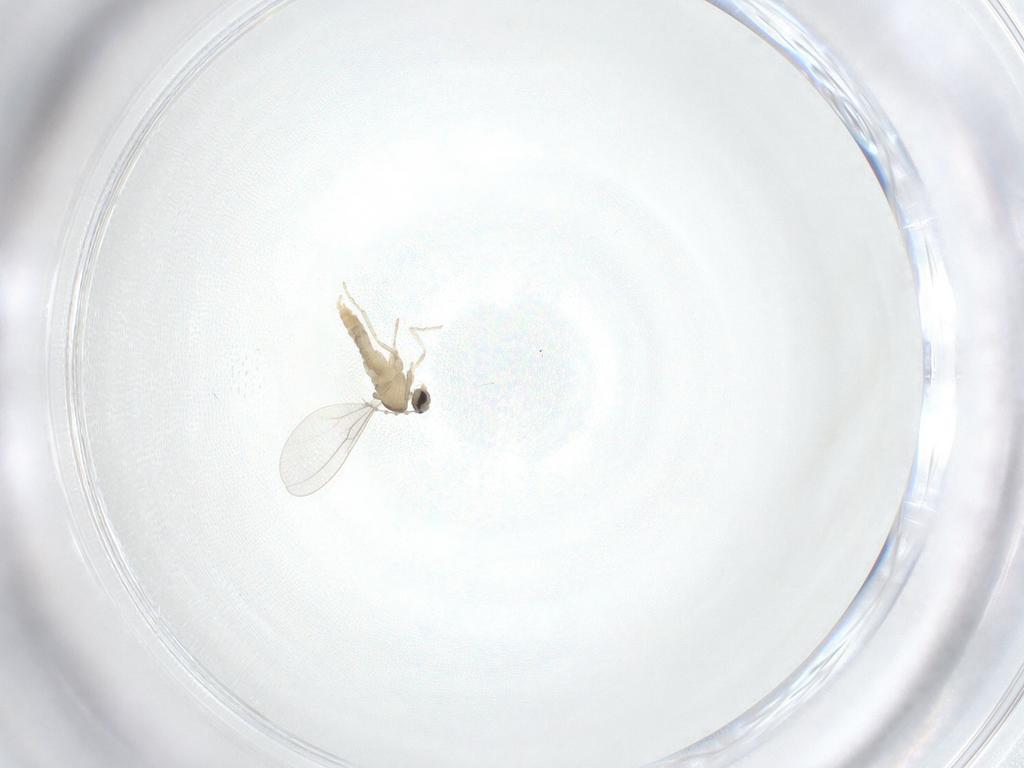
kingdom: Animalia
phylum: Arthropoda
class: Insecta
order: Diptera
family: Cecidomyiidae
